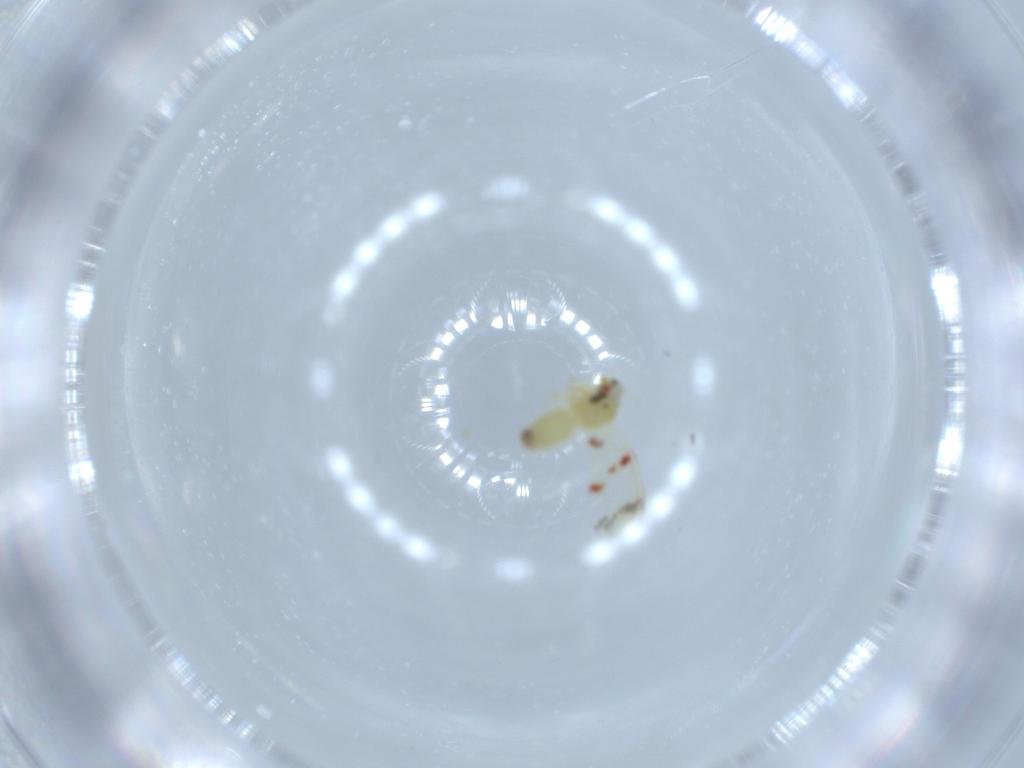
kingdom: Animalia
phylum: Arthropoda
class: Insecta
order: Hemiptera
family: Aleyrodidae
